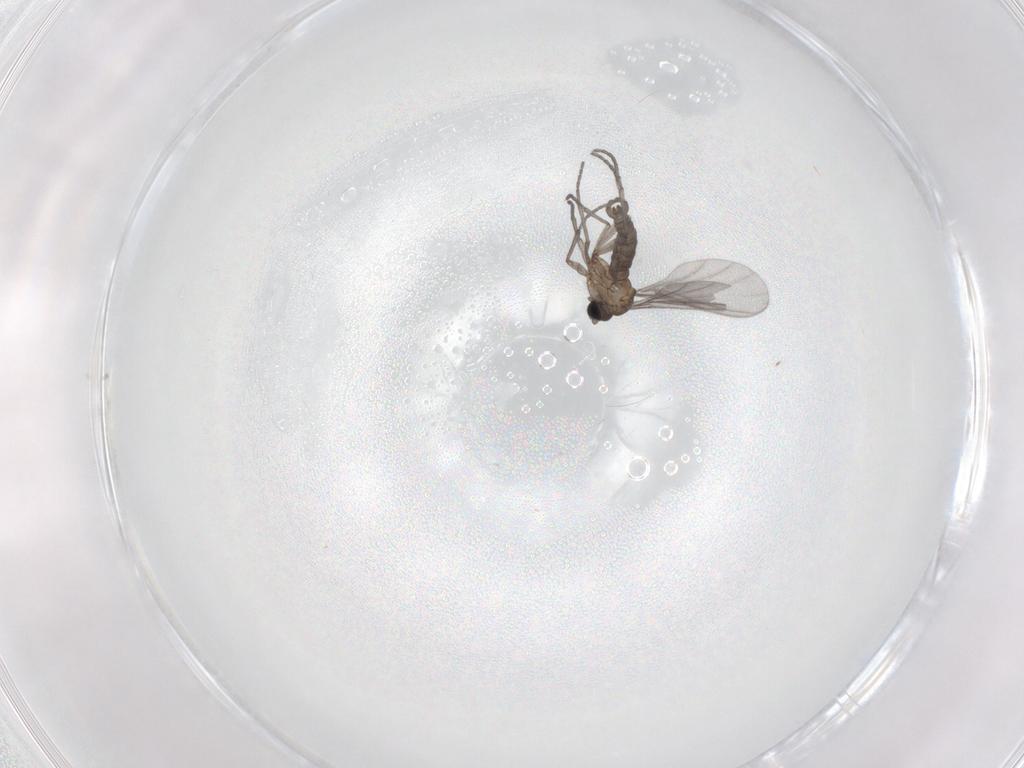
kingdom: Animalia
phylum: Arthropoda
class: Insecta
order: Diptera
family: Sciaridae
